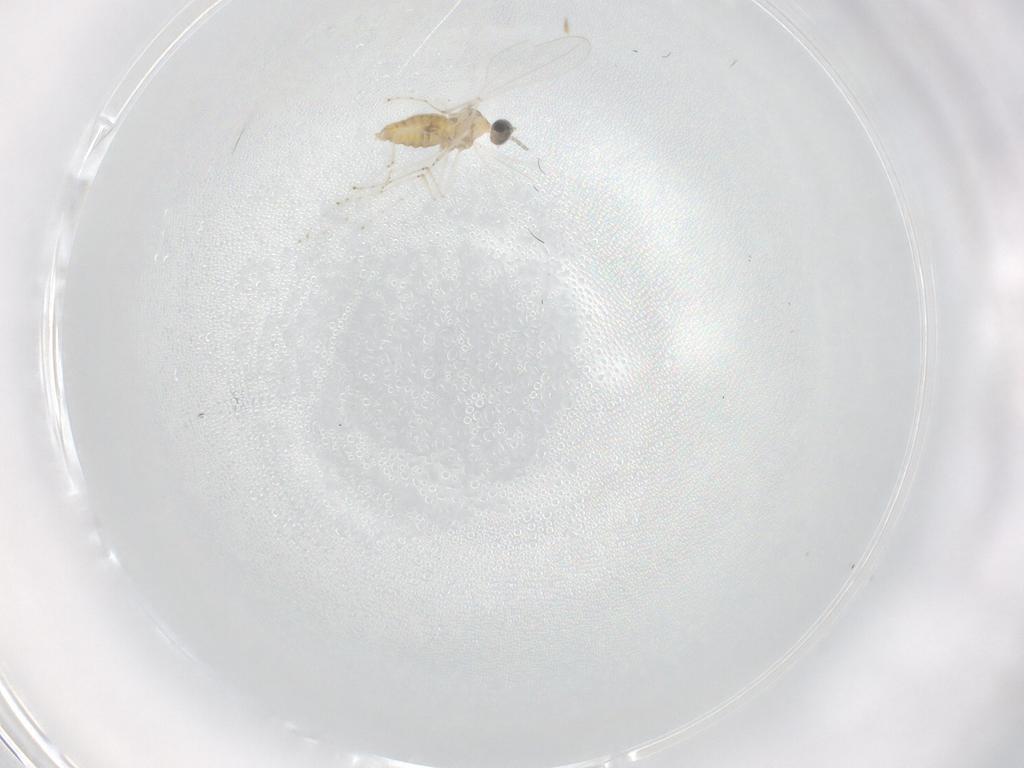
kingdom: Animalia
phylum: Arthropoda
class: Insecta
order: Diptera
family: Cecidomyiidae
